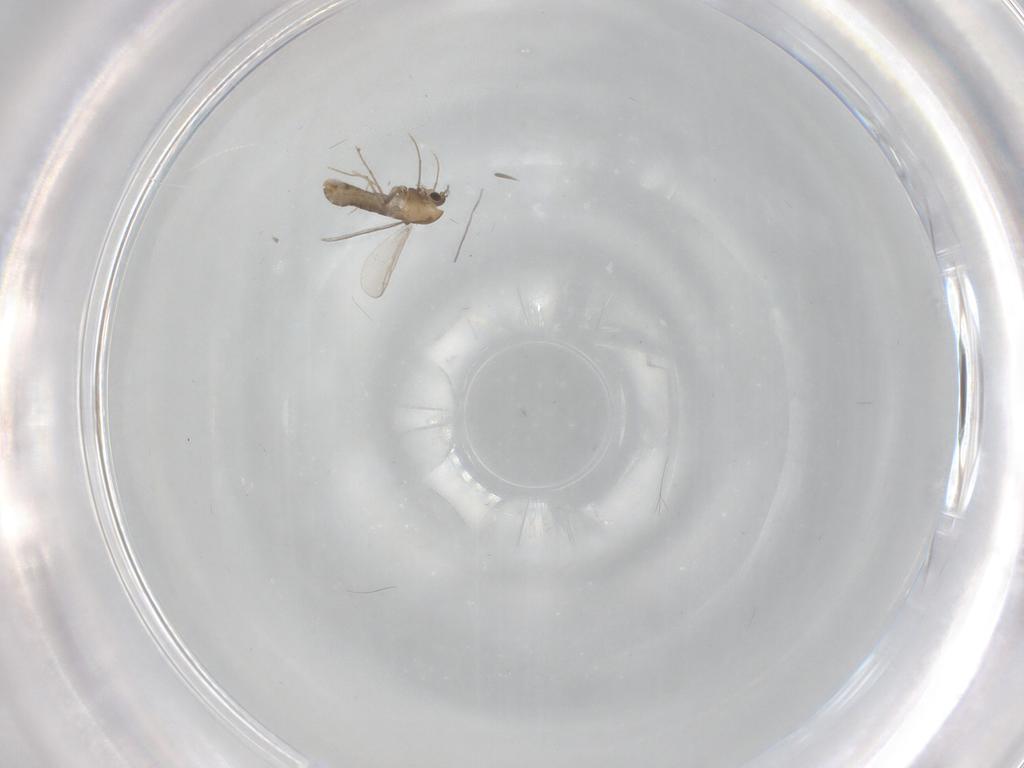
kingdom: Animalia
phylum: Arthropoda
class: Insecta
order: Diptera
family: Chironomidae
